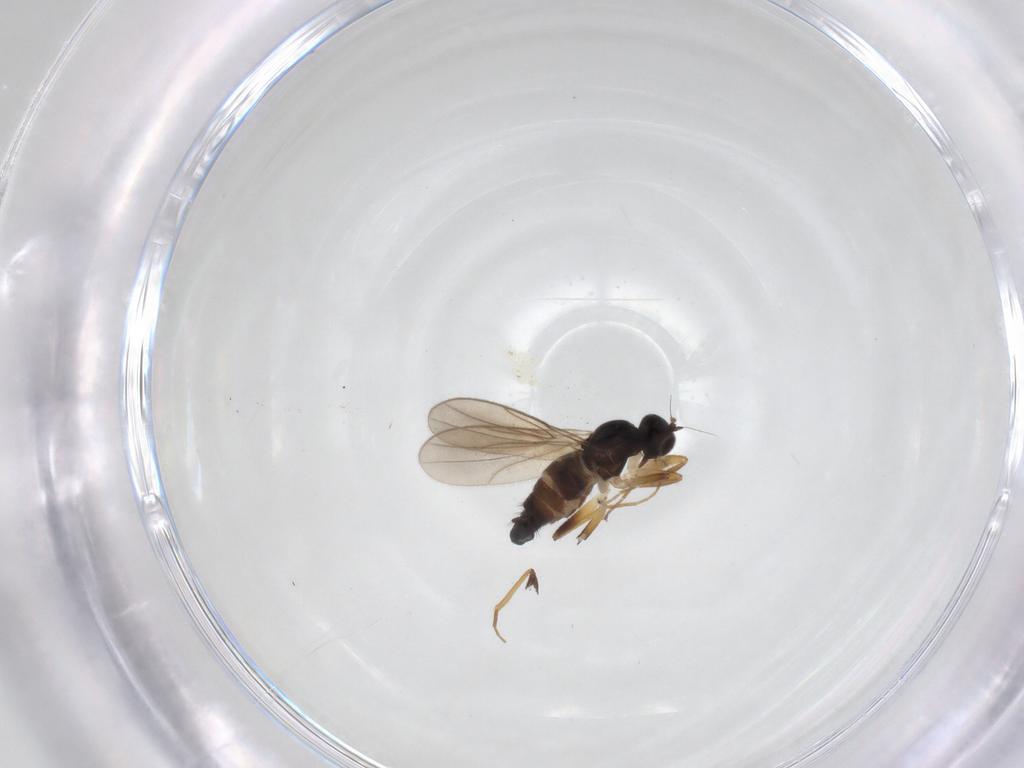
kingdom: Animalia
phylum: Arthropoda
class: Insecta
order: Diptera
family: Hybotidae
